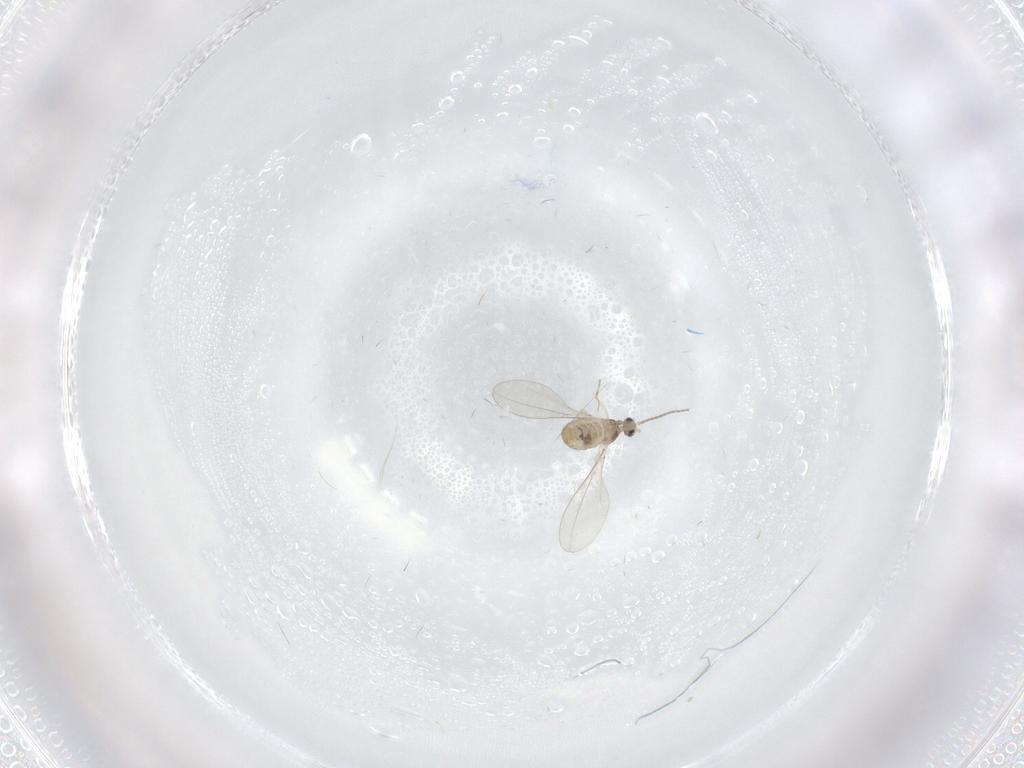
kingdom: Animalia
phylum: Arthropoda
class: Insecta
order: Diptera
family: Cecidomyiidae
